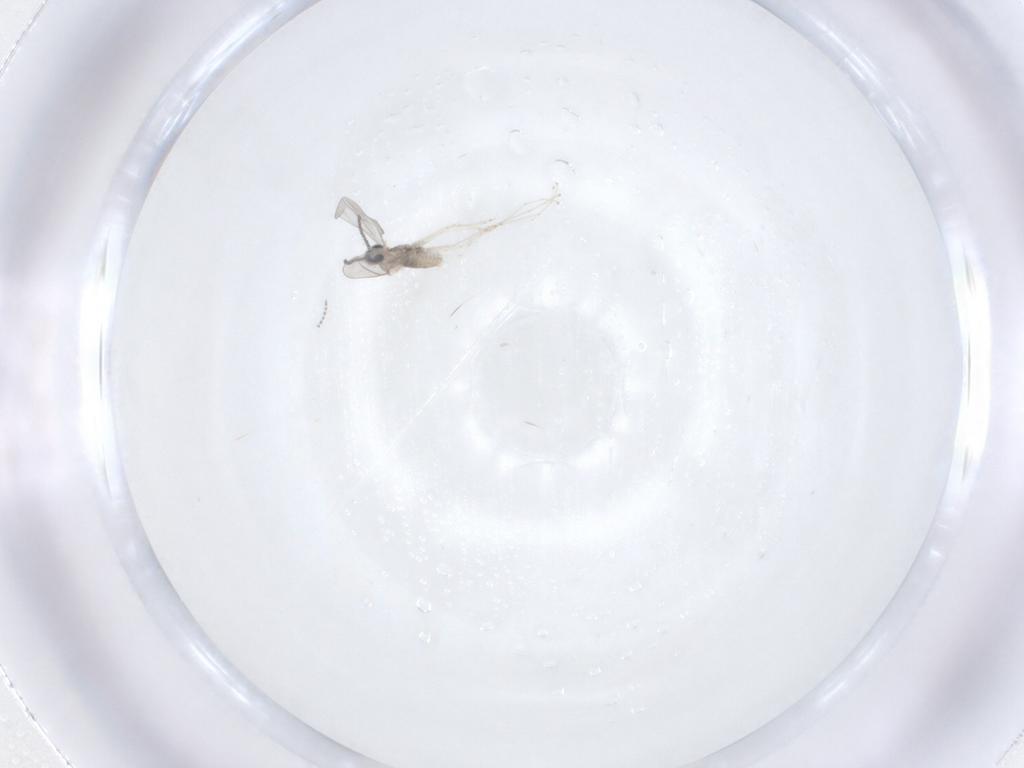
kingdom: Animalia
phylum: Arthropoda
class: Insecta
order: Diptera
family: Cecidomyiidae
